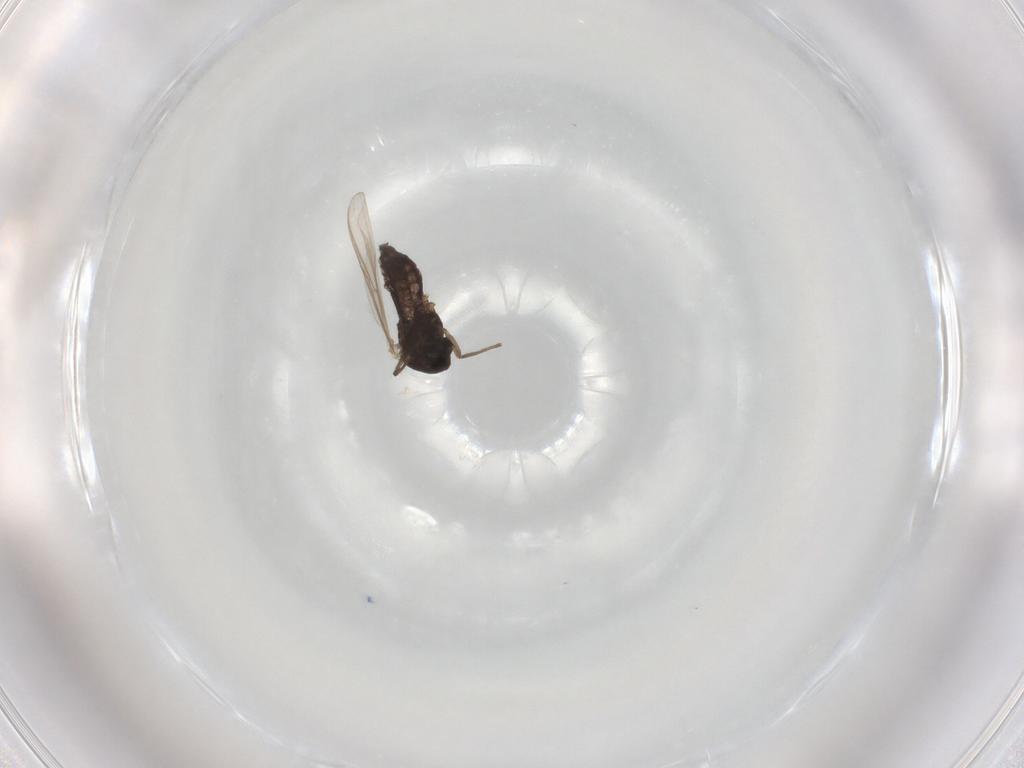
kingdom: Animalia
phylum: Arthropoda
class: Insecta
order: Diptera
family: Chironomidae
